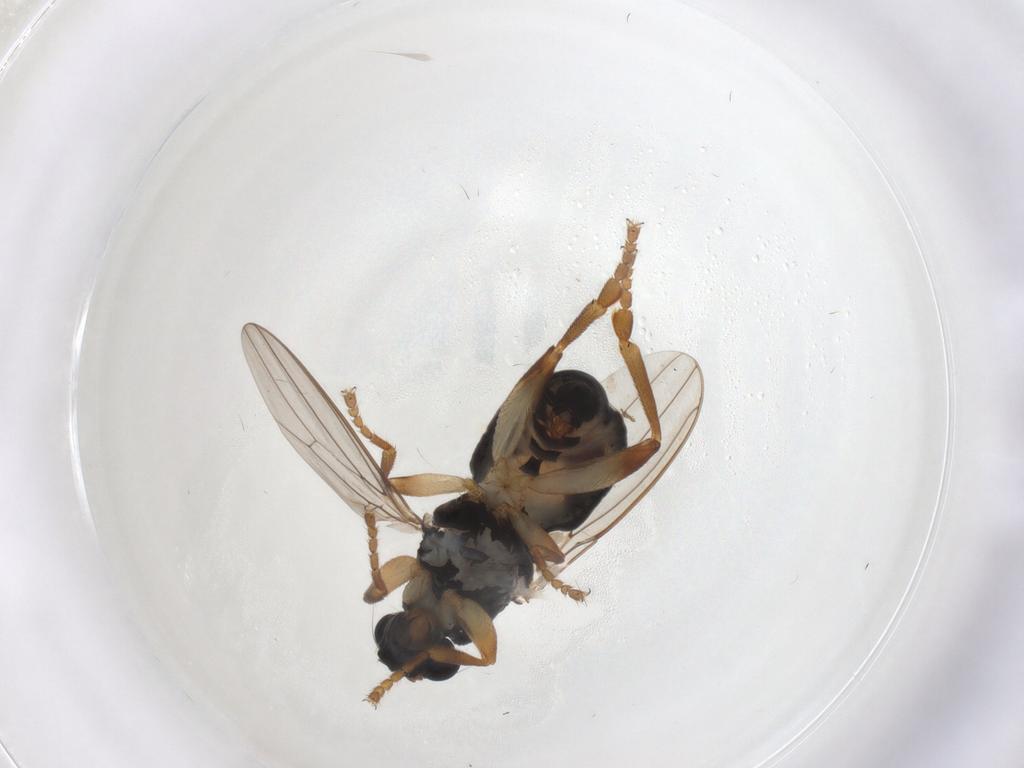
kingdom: Animalia
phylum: Arthropoda
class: Insecta
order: Diptera
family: Sphaeroceridae
